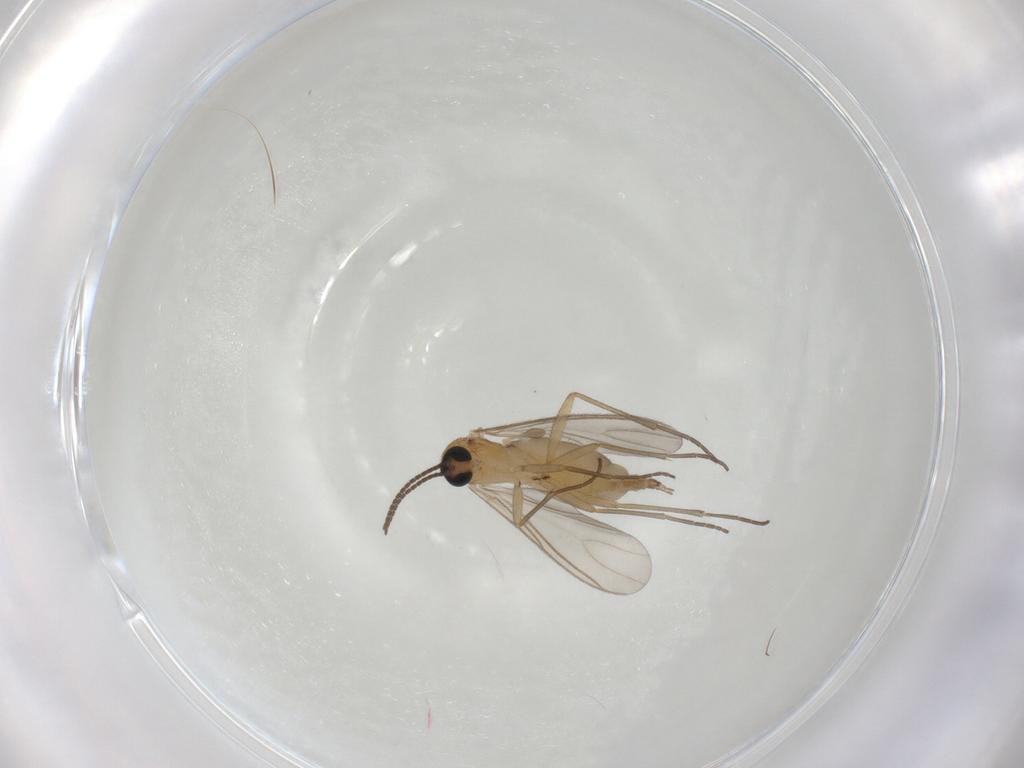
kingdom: Animalia
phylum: Arthropoda
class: Insecta
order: Diptera
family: Sciaridae
